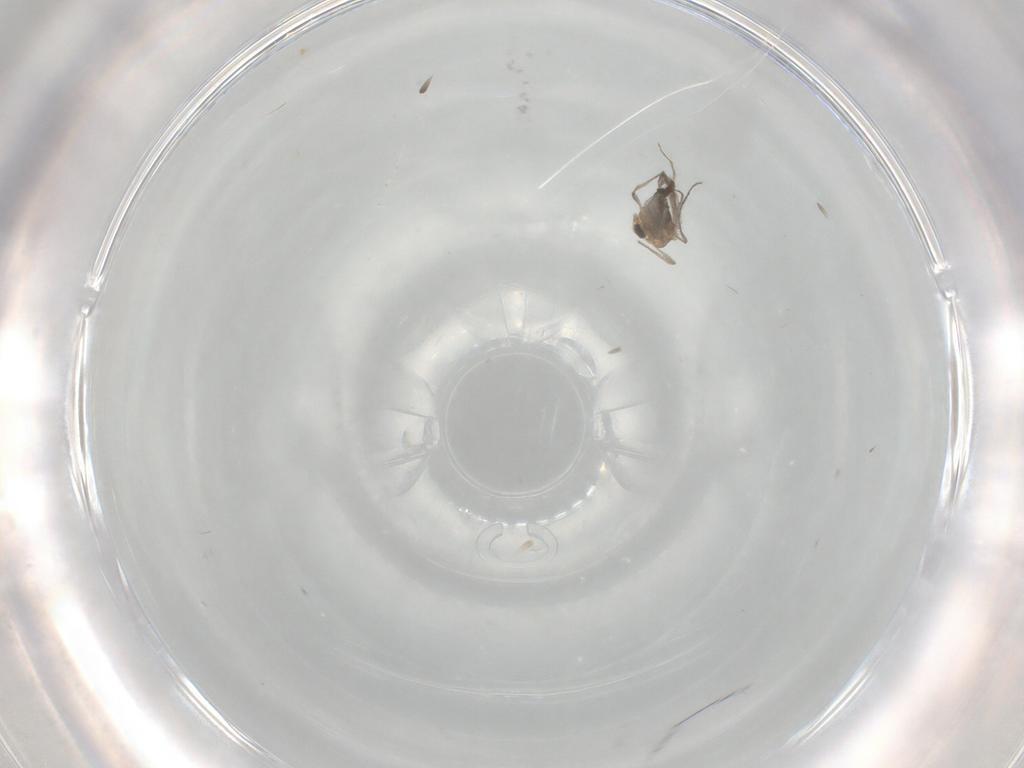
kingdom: Animalia
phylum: Arthropoda
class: Insecta
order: Diptera
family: Chironomidae
